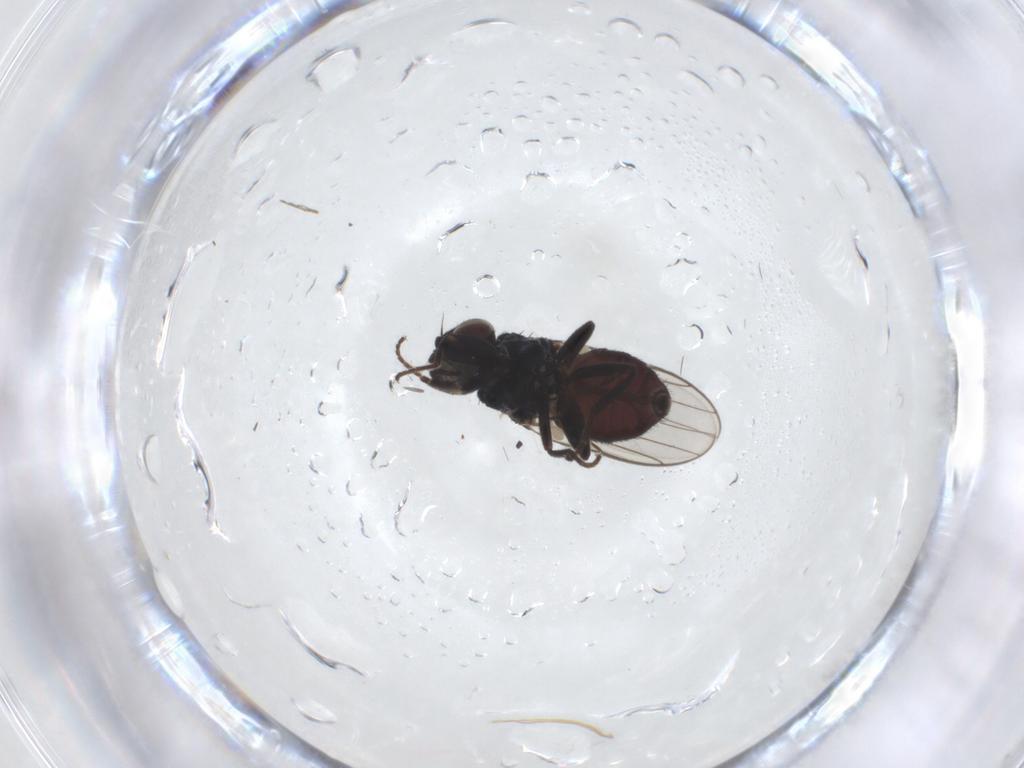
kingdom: Animalia
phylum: Arthropoda
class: Insecta
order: Diptera
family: Chloropidae
